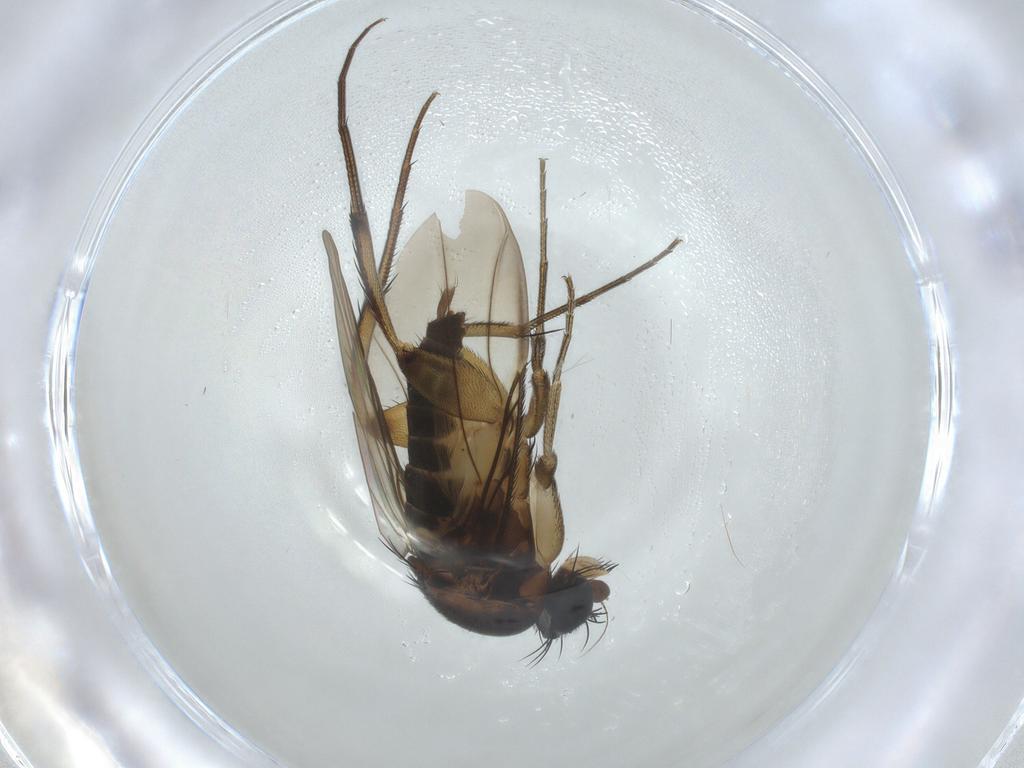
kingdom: Animalia
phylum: Arthropoda
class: Insecta
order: Diptera
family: Phoridae
